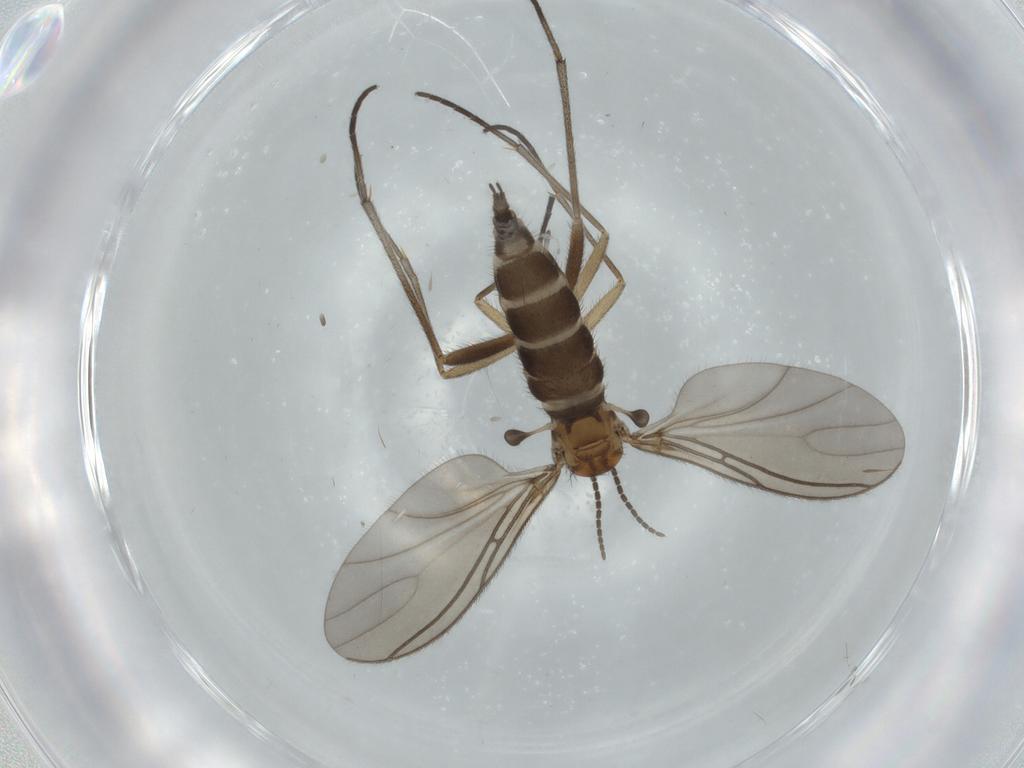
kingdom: Animalia
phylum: Arthropoda
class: Insecta
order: Diptera
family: Sciaridae
